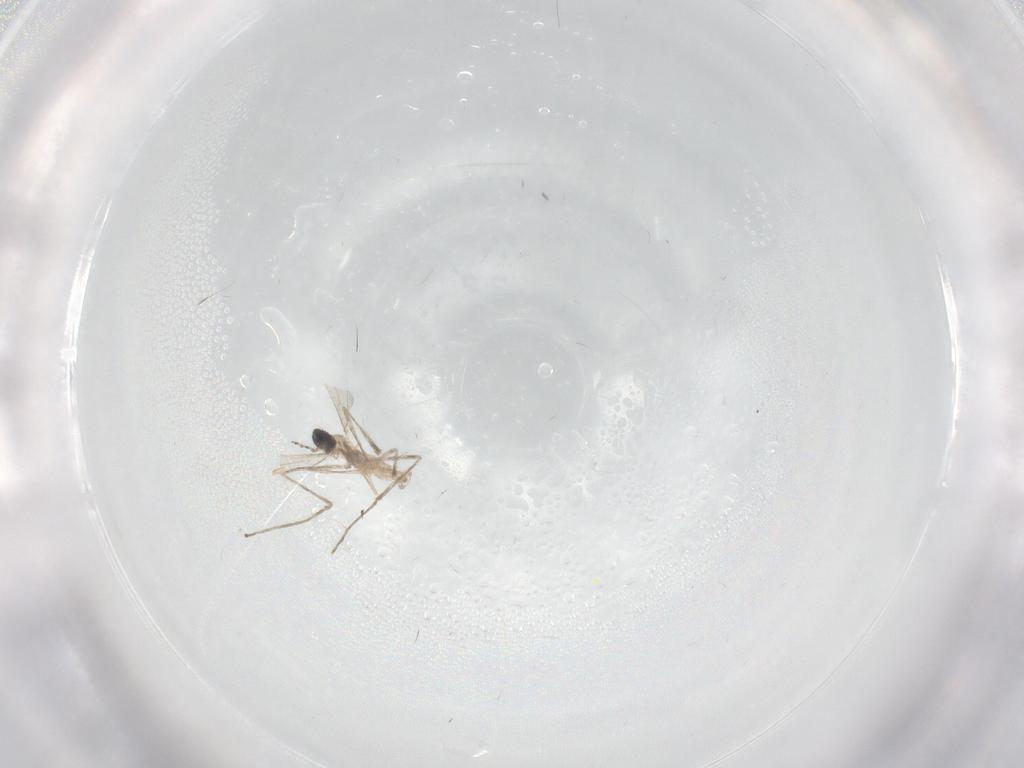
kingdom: Animalia
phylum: Arthropoda
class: Insecta
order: Diptera
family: Cecidomyiidae
